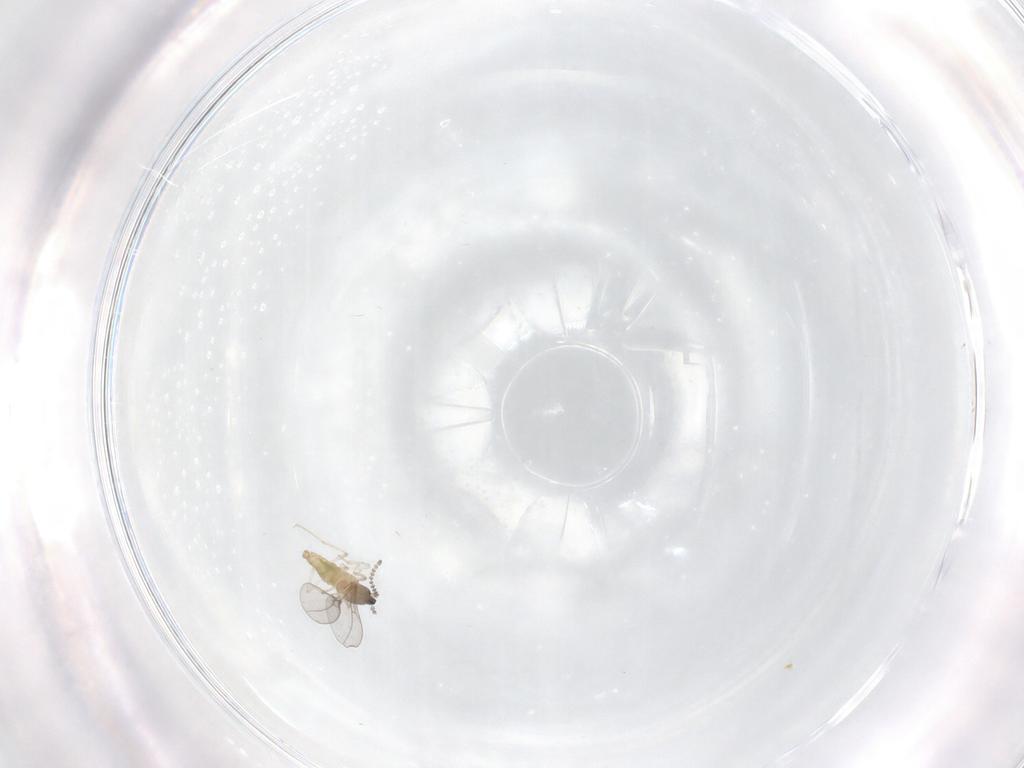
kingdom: Animalia
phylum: Arthropoda
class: Insecta
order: Diptera
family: Cecidomyiidae
